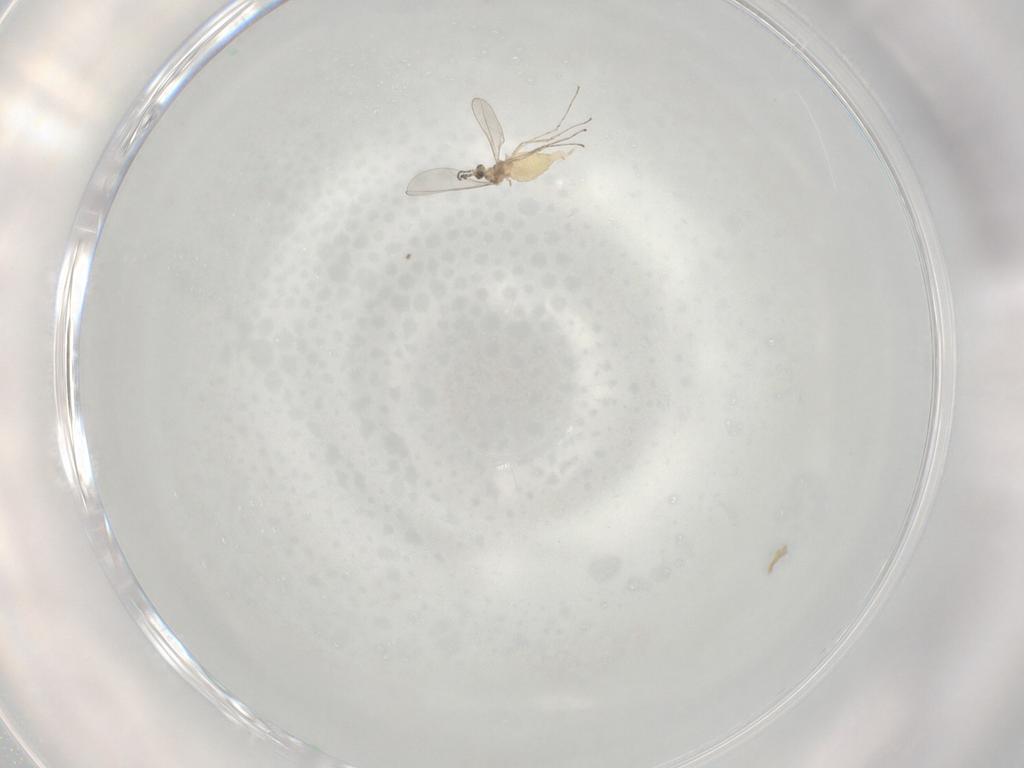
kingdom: Animalia
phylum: Arthropoda
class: Insecta
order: Diptera
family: Cecidomyiidae
